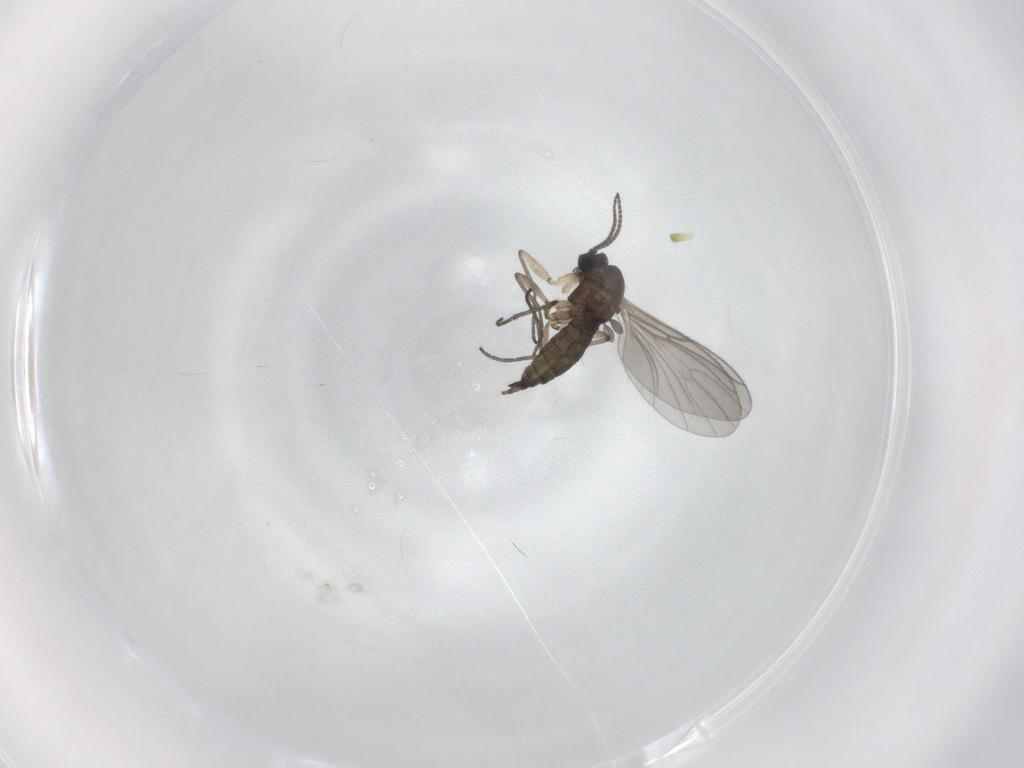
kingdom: Animalia
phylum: Arthropoda
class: Insecta
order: Diptera
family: Sciaridae
